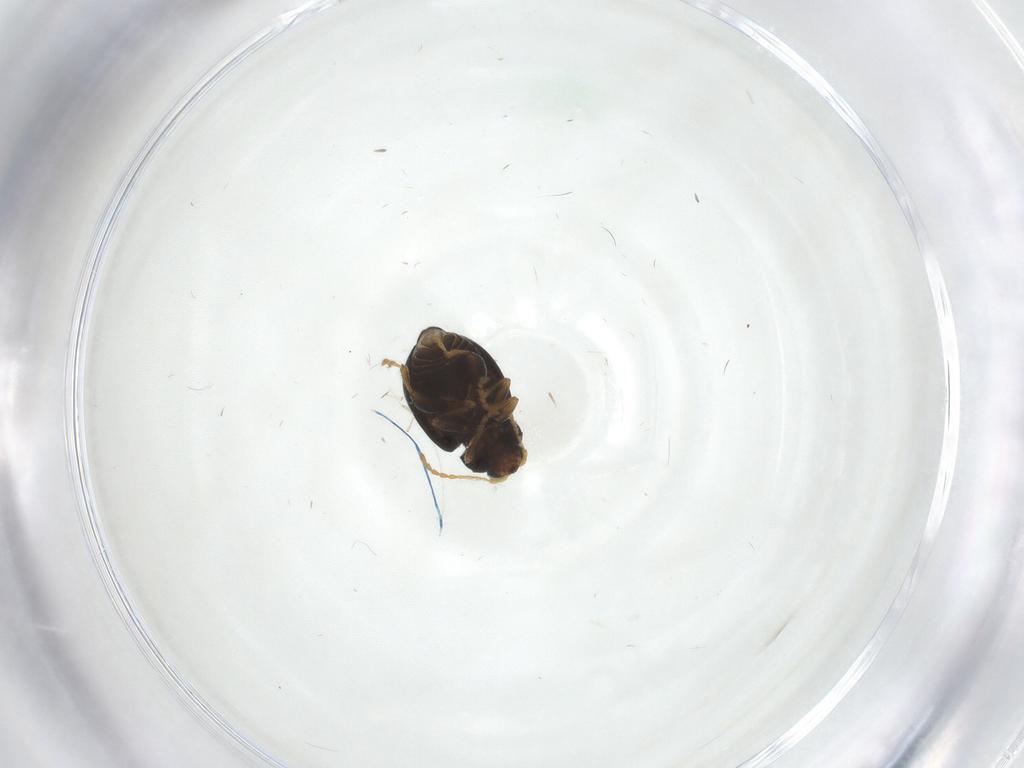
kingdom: Animalia
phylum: Arthropoda
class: Insecta
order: Coleoptera
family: Chrysomelidae
